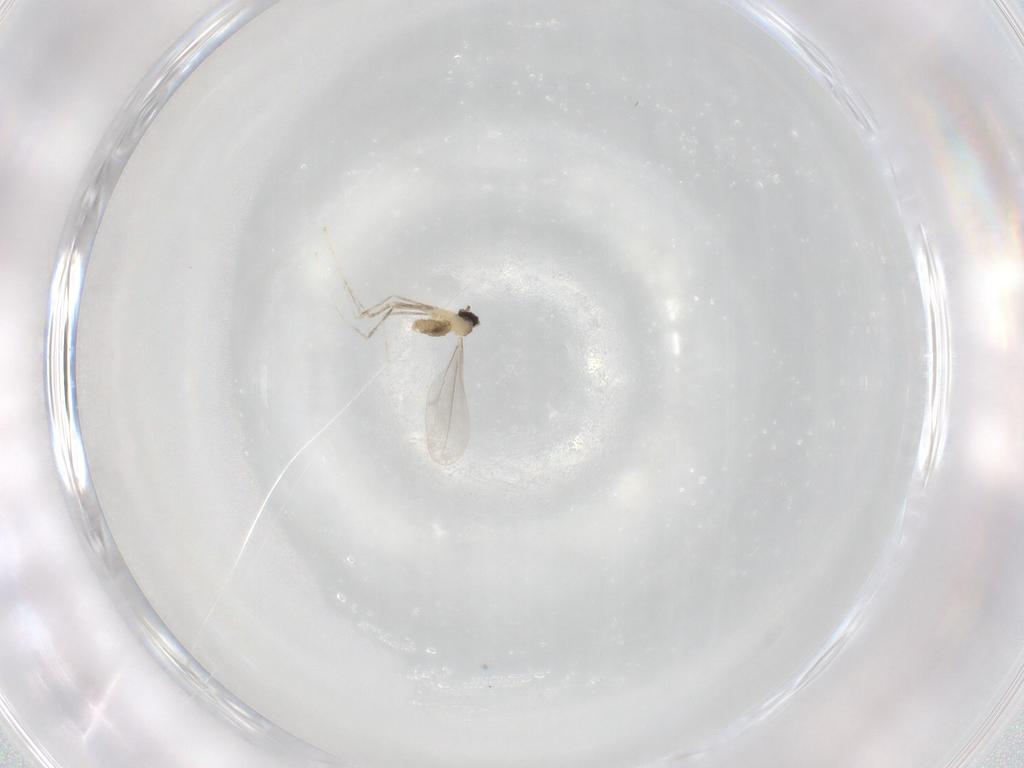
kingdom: Animalia
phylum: Arthropoda
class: Insecta
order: Diptera
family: Cecidomyiidae
